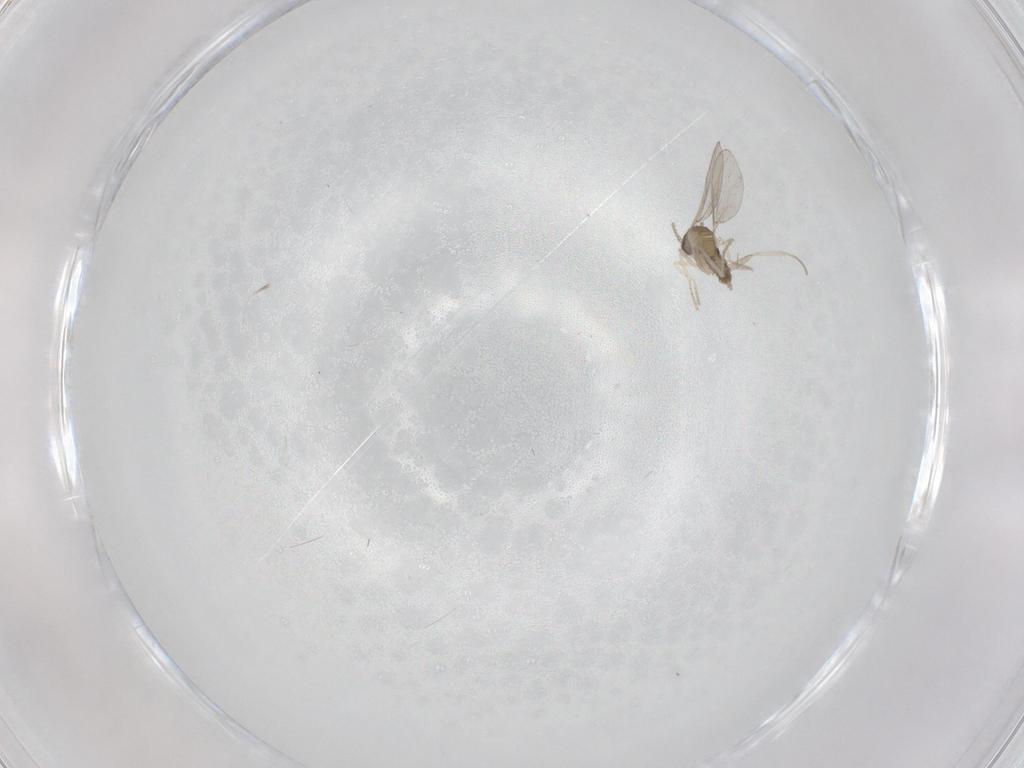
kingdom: Animalia
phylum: Arthropoda
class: Insecta
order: Diptera
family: Cecidomyiidae
